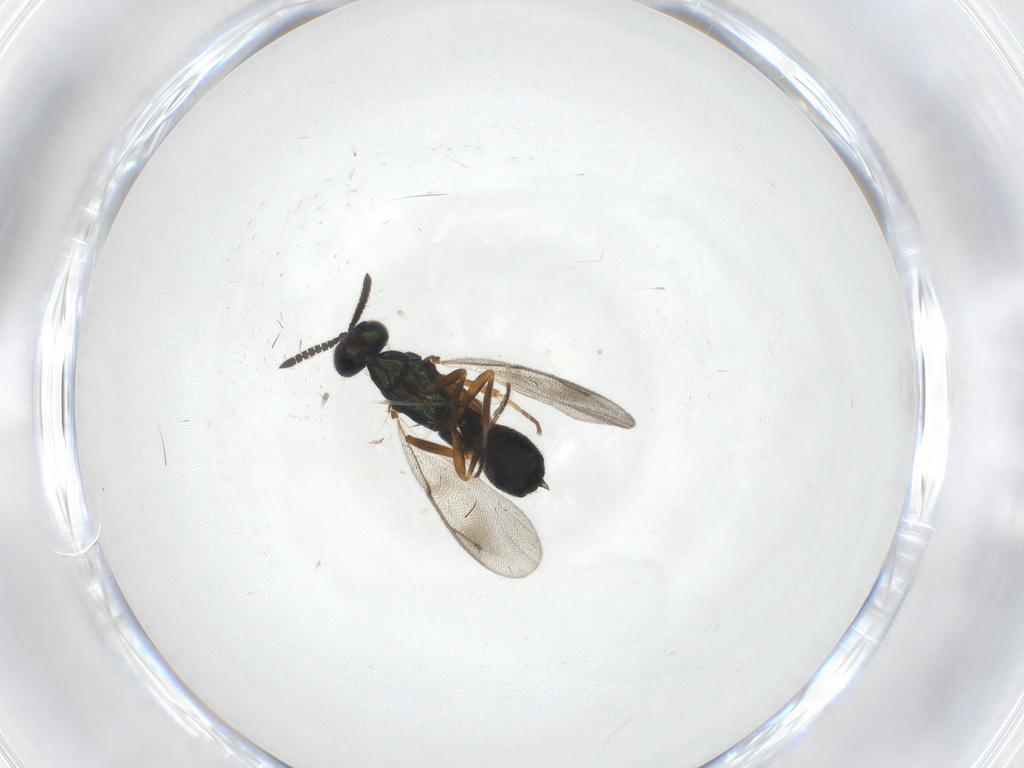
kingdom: Animalia
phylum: Arthropoda
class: Insecta
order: Hymenoptera
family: Cleonyminae
